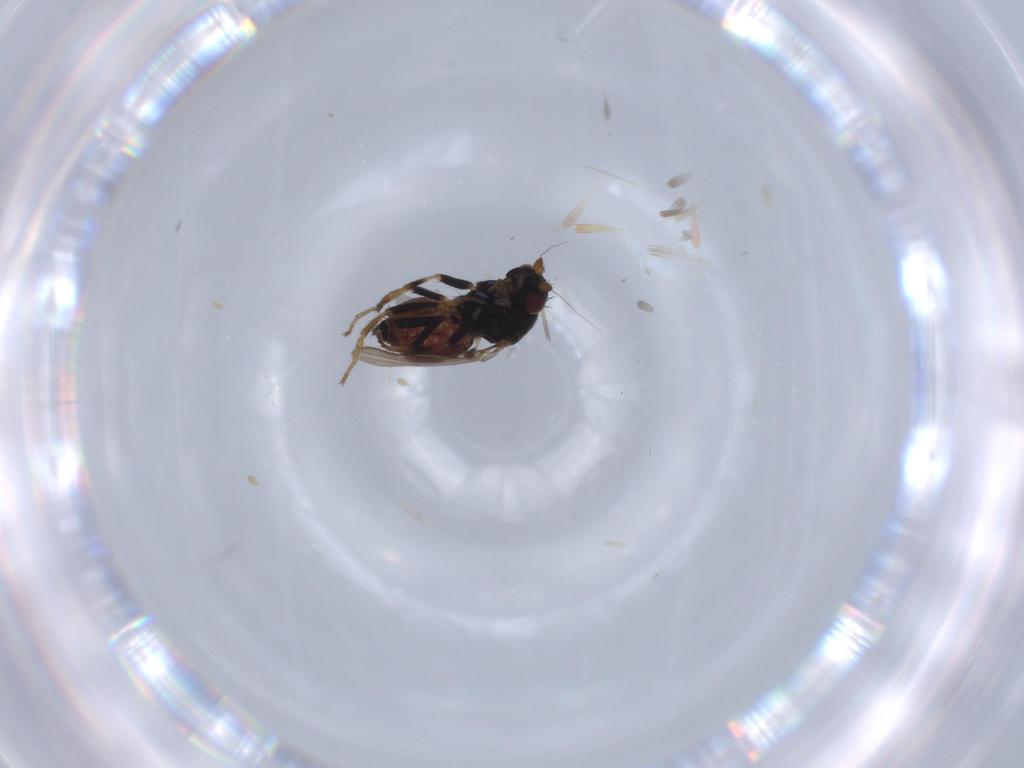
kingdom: Animalia
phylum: Arthropoda
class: Insecta
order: Diptera
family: Sphaeroceridae
